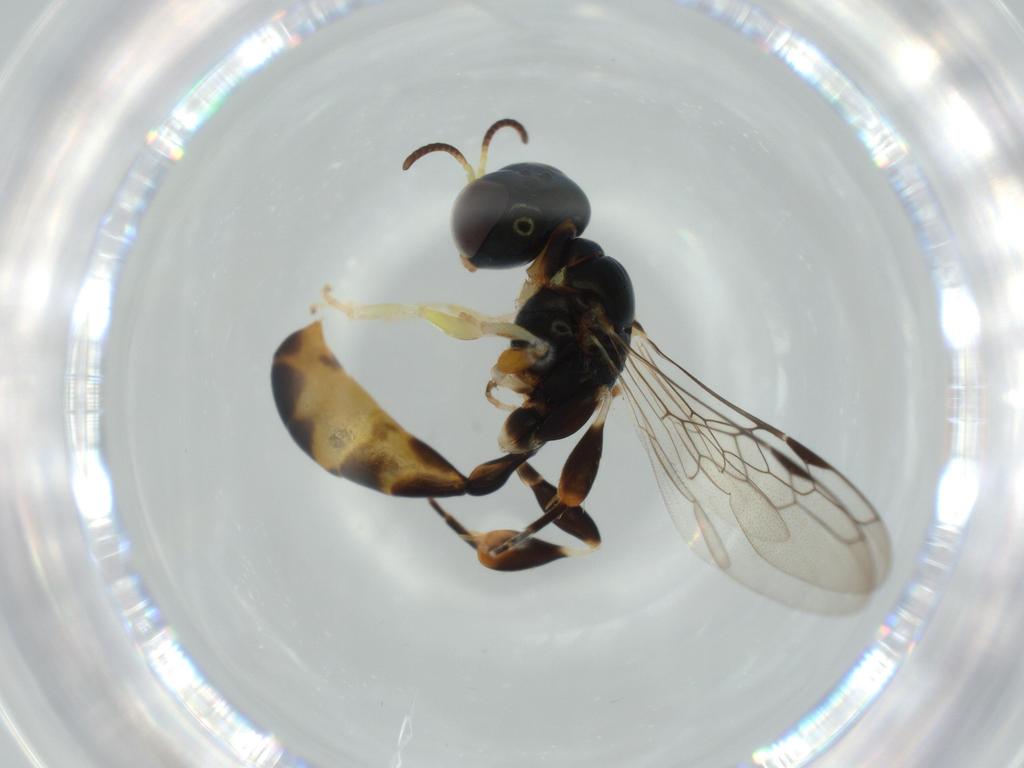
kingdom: Animalia
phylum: Arthropoda
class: Insecta
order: Hymenoptera
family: Crabronidae
